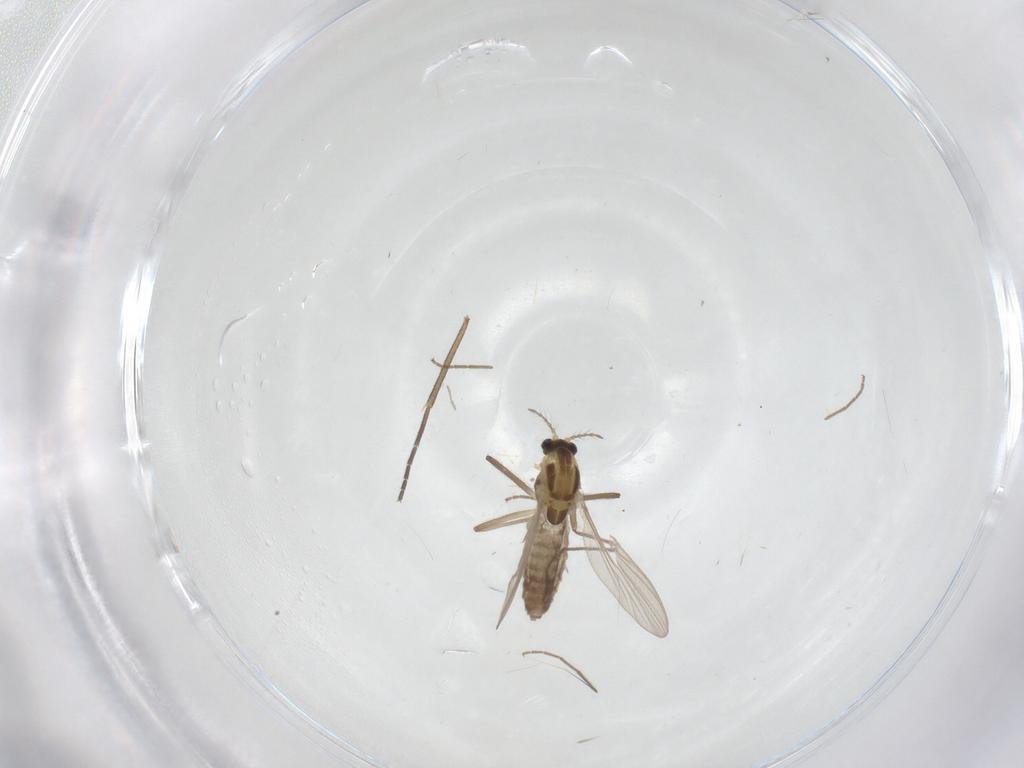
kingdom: Animalia
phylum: Arthropoda
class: Insecta
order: Diptera
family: Chironomidae
